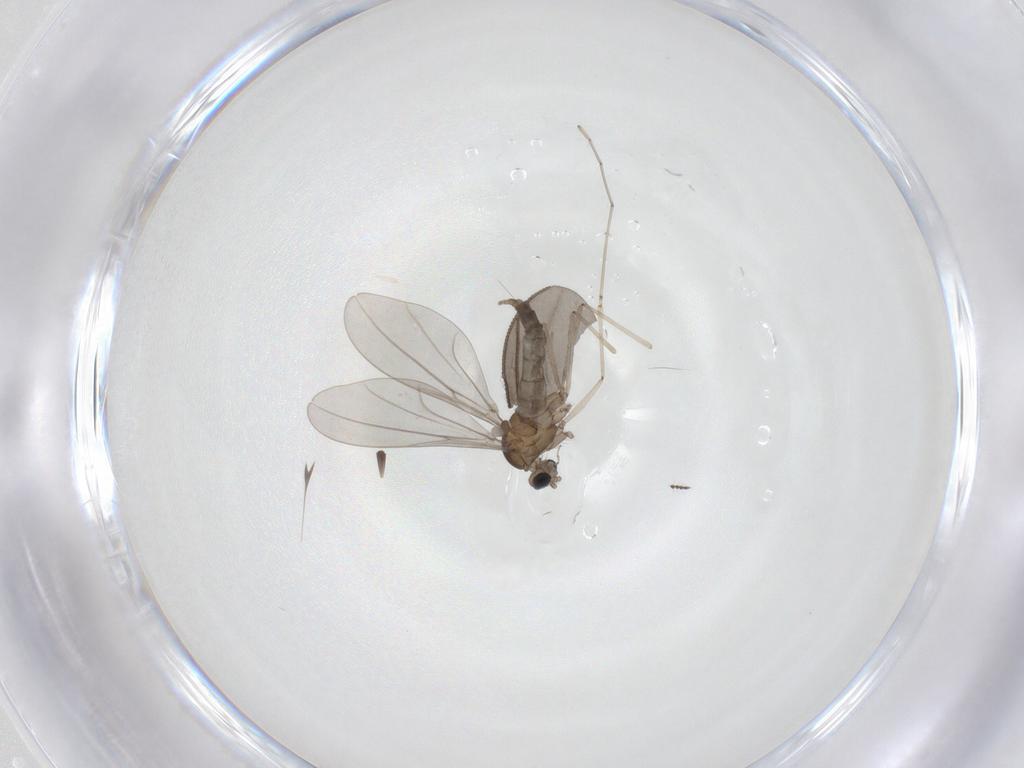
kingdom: Animalia
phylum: Arthropoda
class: Insecta
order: Diptera
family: Cecidomyiidae
